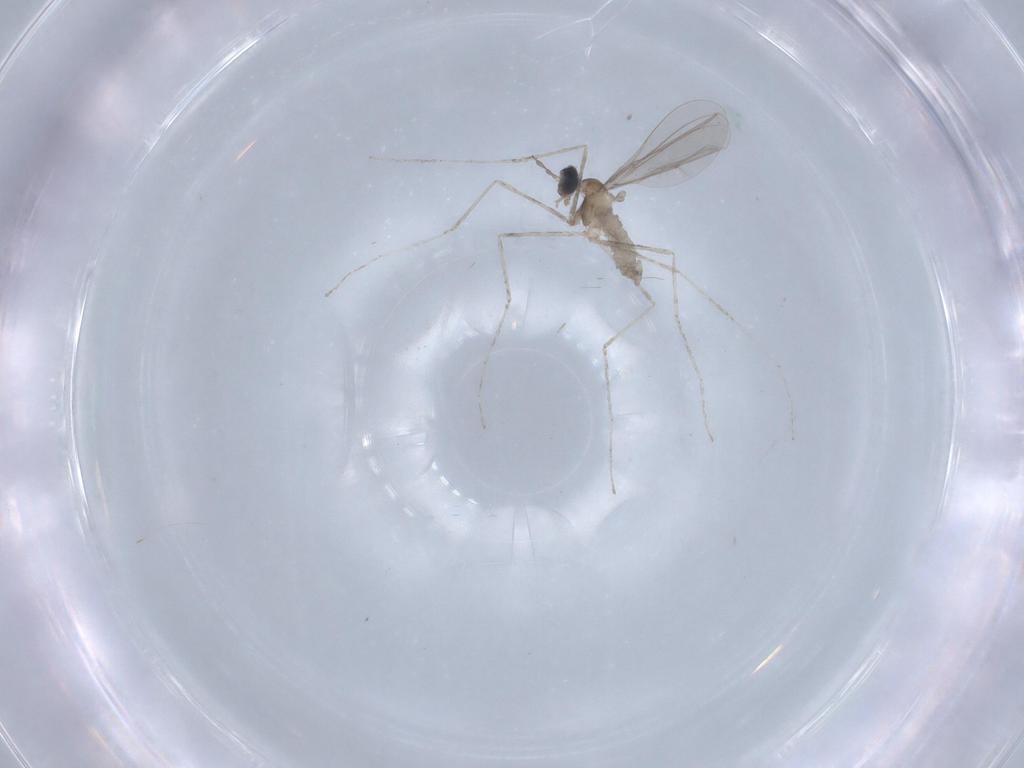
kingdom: Animalia
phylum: Arthropoda
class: Insecta
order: Diptera
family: Cecidomyiidae
